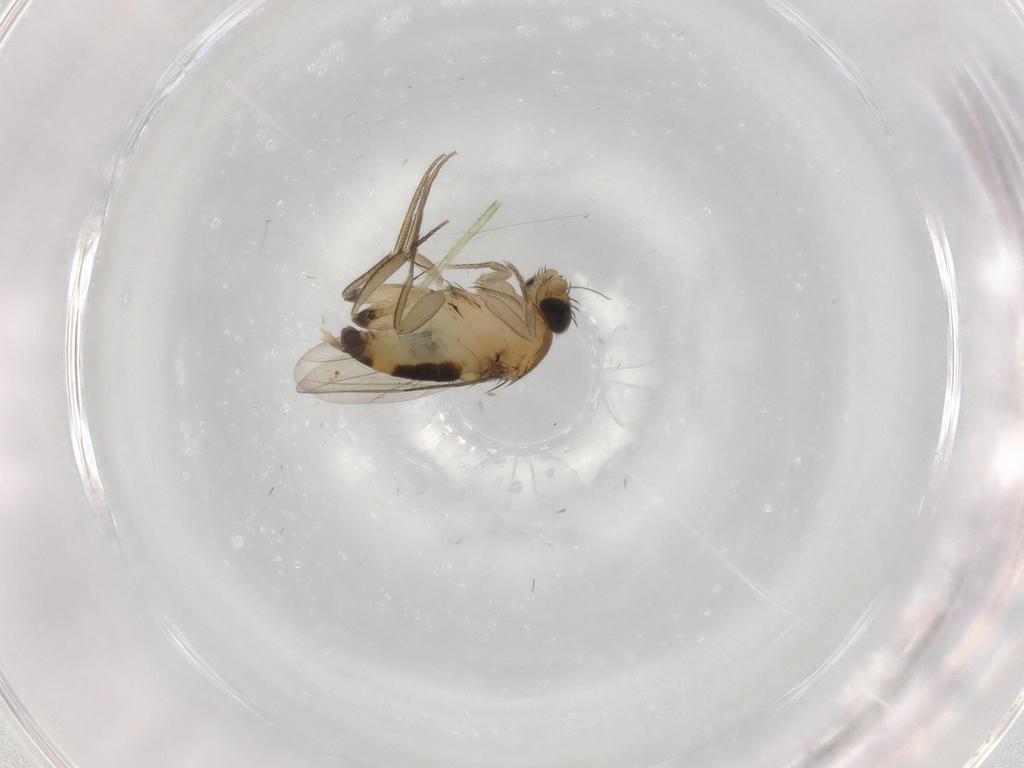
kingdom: Animalia
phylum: Arthropoda
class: Insecta
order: Diptera
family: Phoridae
